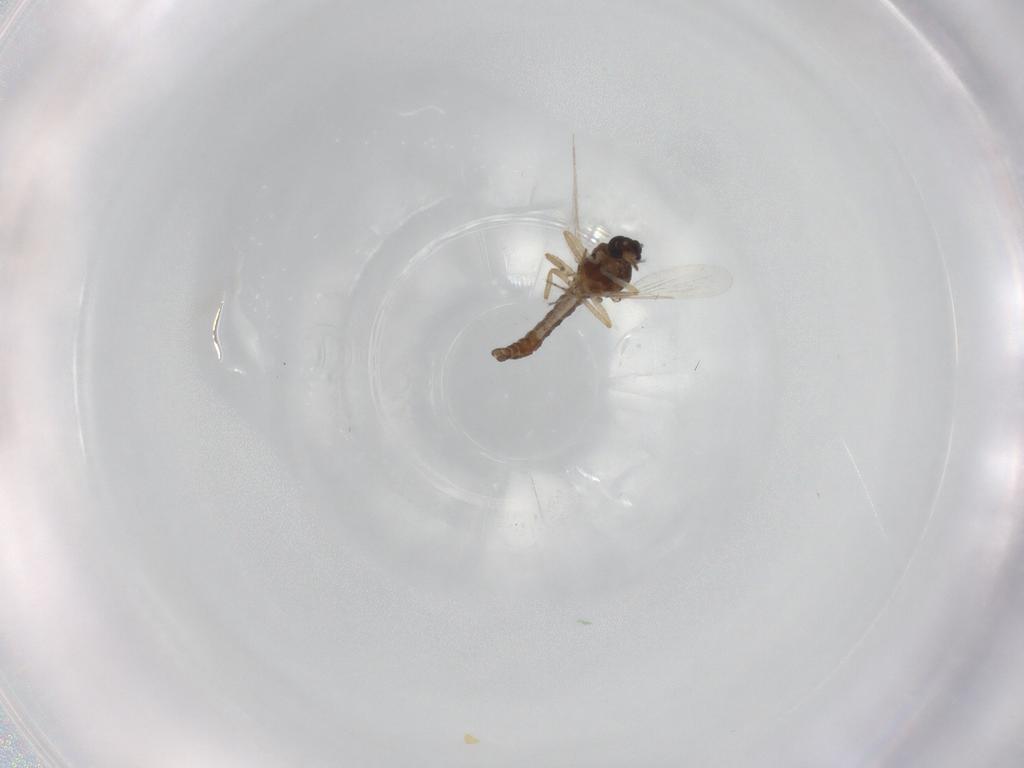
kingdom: Animalia
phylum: Arthropoda
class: Insecta
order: Diptera
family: Ceratopogonidae
